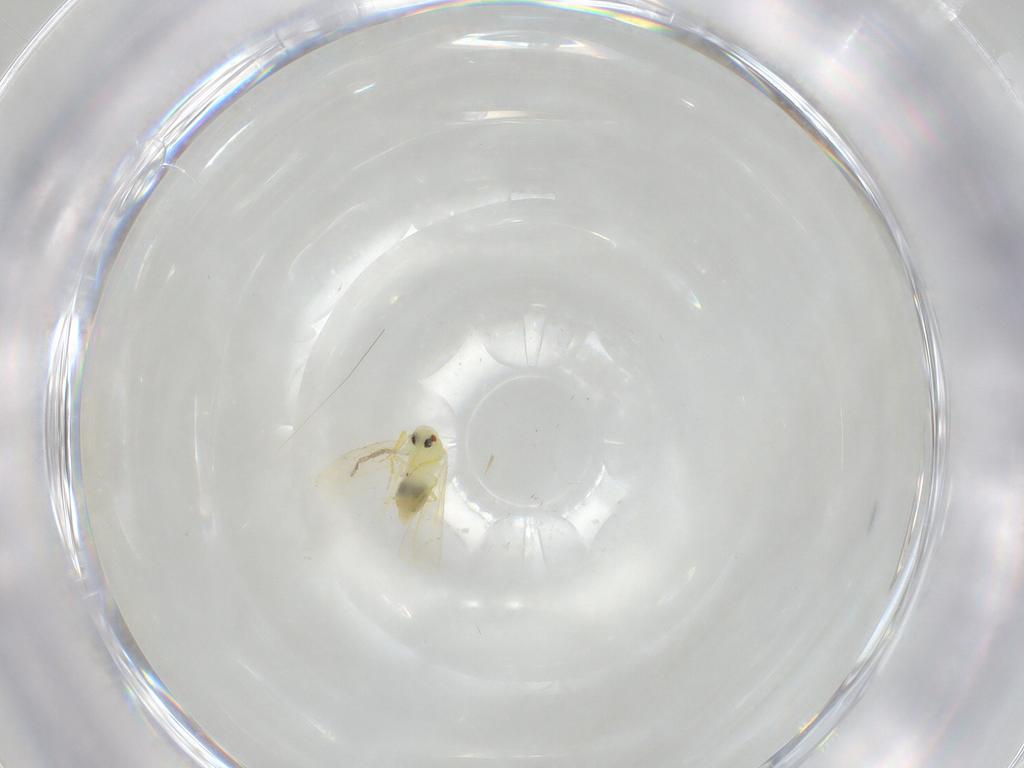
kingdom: Animalia
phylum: Arthropoda
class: Insecta
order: Hemiptera
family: Aleyrodidae
